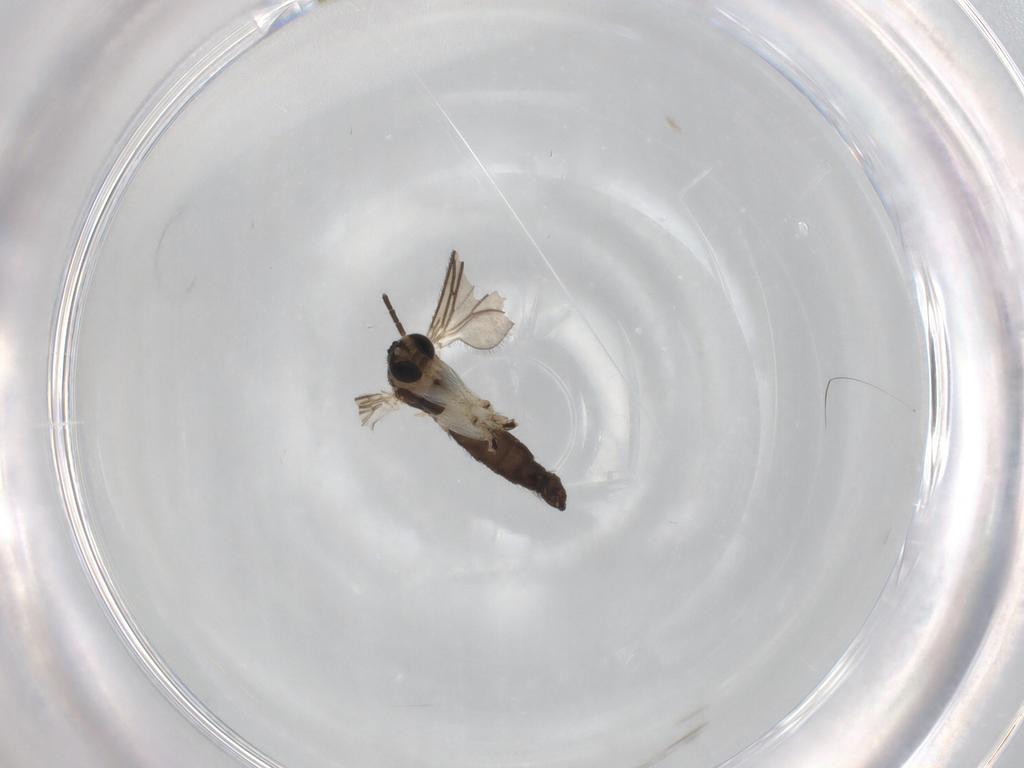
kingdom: Animalia
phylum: Arthropoda
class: Insecta
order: Diptera
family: Sciaridae
